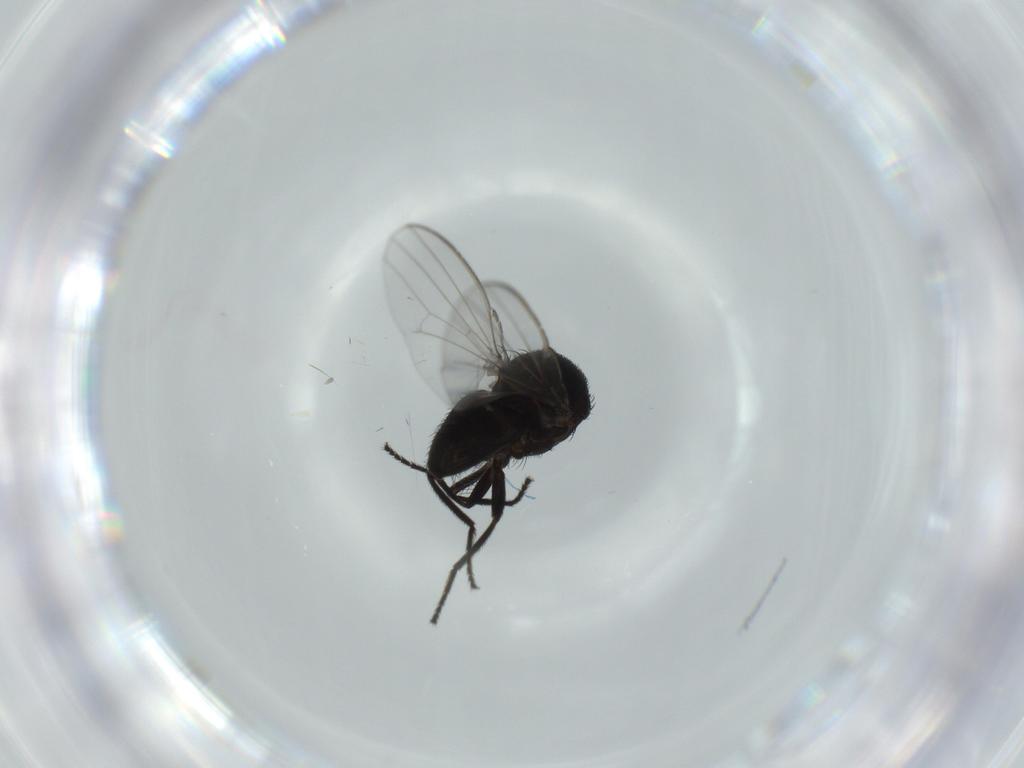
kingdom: Animalia
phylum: Arthropoda
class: Insecta
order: Diptera
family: Milichiidae
